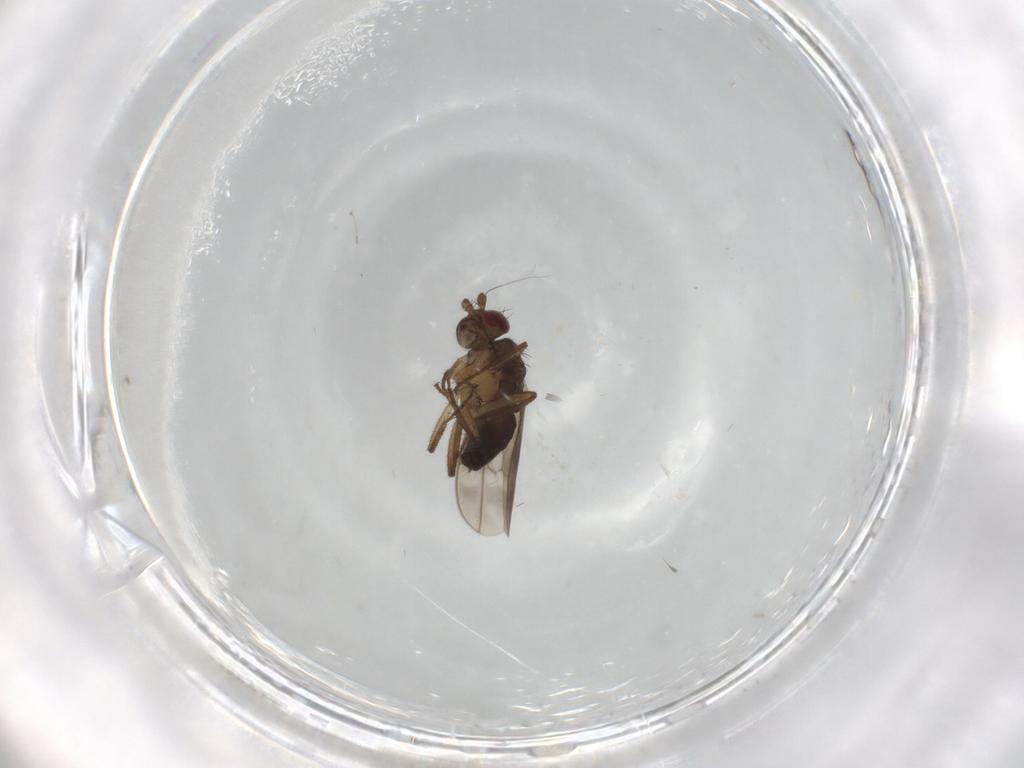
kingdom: Animalia
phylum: Arthropoda
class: Insecta
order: Diptera
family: Sphaeroceridae
